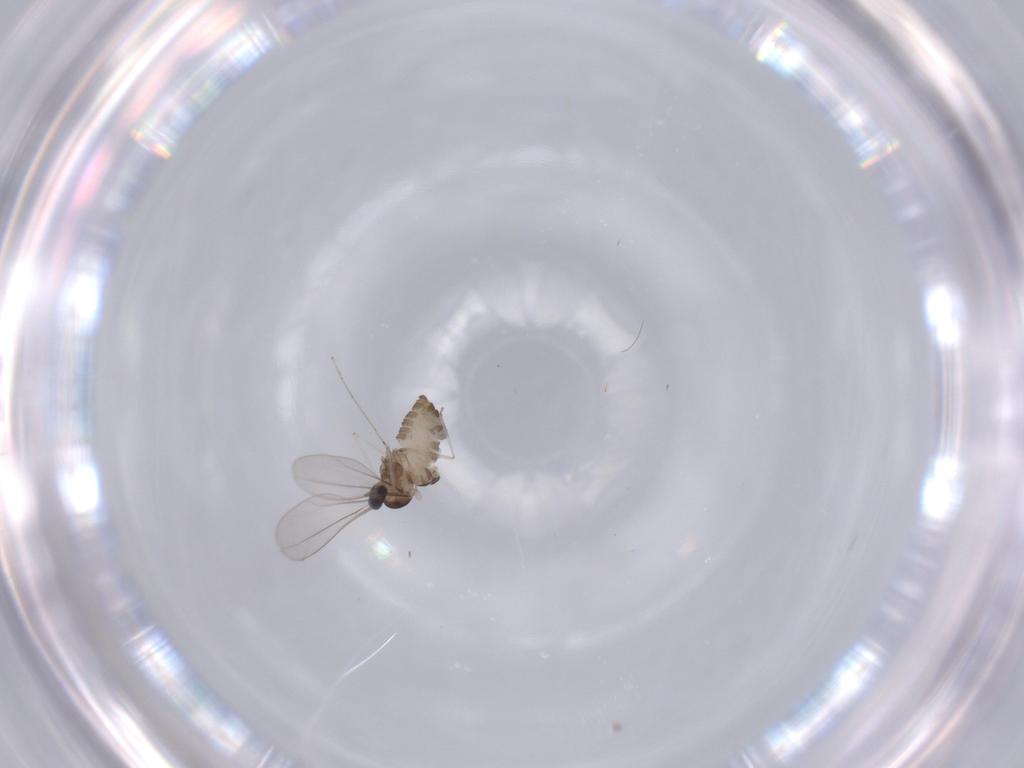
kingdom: Animalia
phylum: Arthropoda
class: Insecta
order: Diptera
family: Cecidomyiidae
